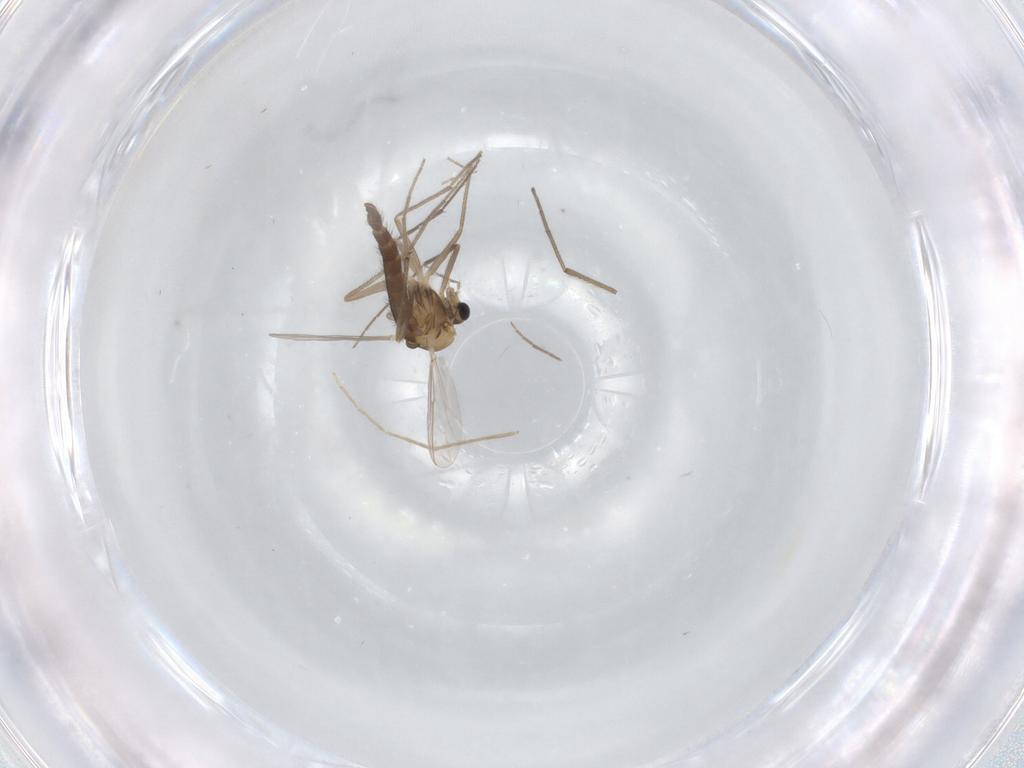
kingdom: Animalia
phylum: Arthropoda
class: Insecta
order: Diptera
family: Chironomidae
